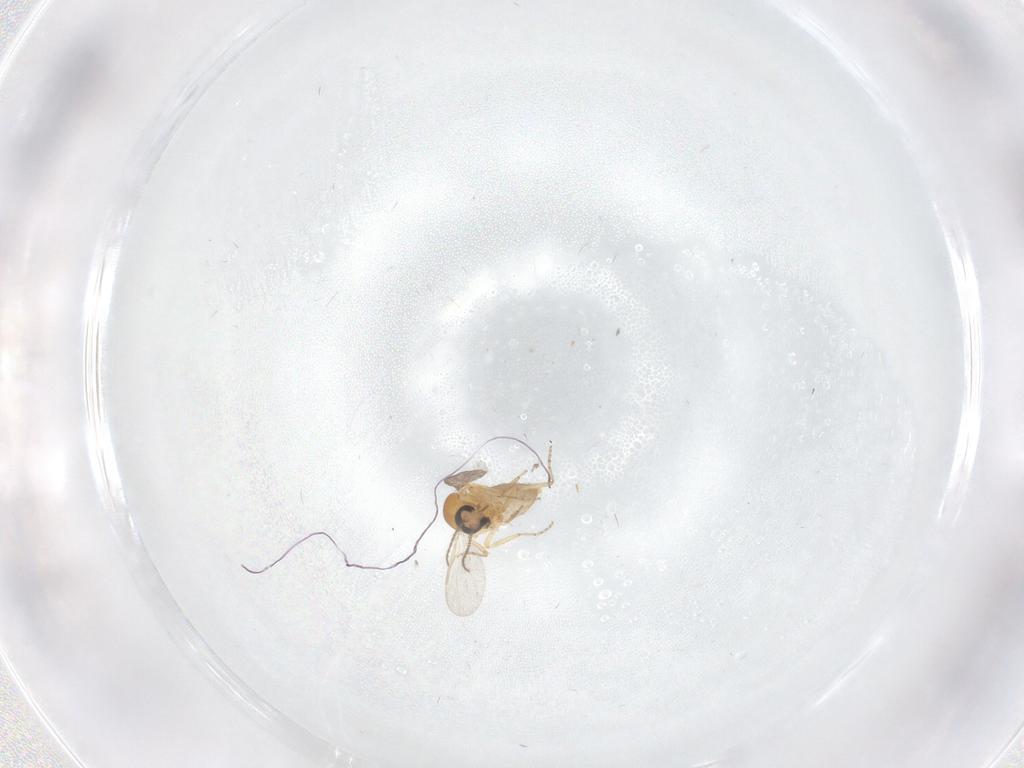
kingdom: Animalia
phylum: Arthropoda
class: Insecta
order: Diptera
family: Ceratopogonidae
